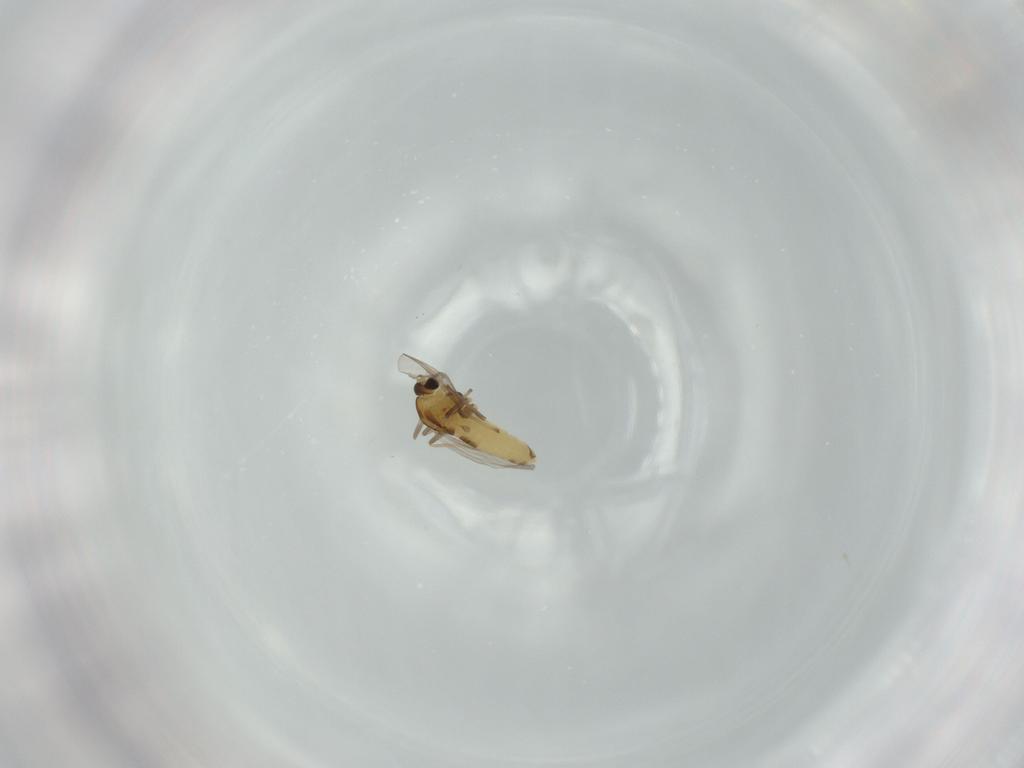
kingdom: Animalia
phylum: Arthropoda
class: Insecta
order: Diptera
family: Chironomidae
